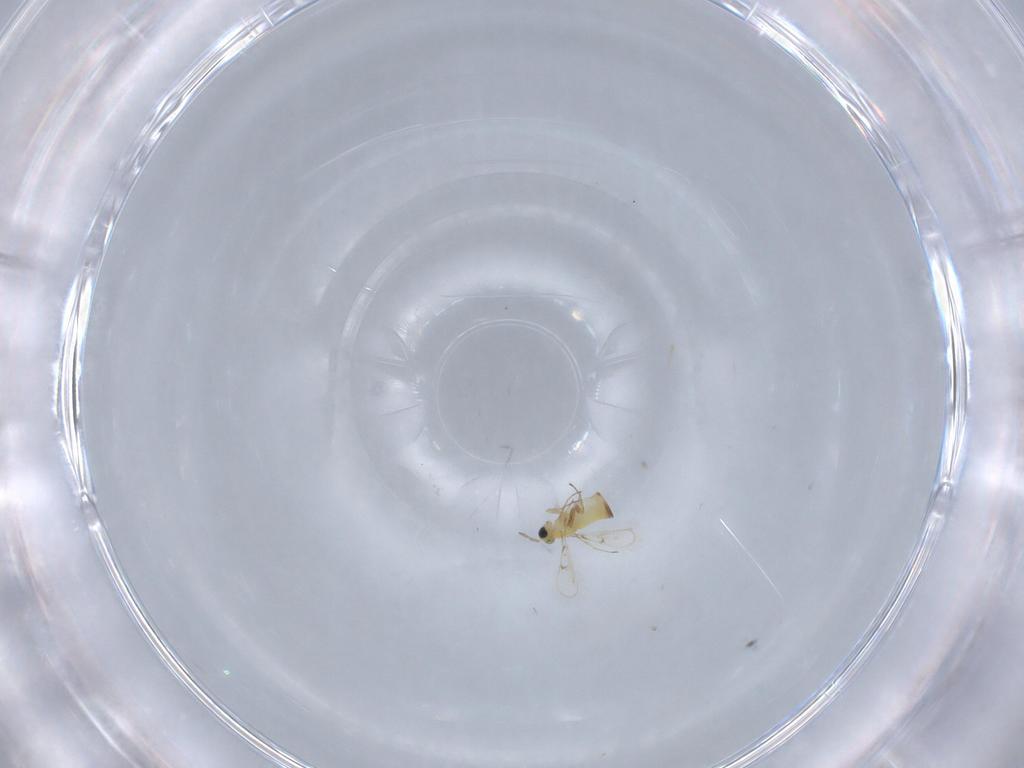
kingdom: Animalia
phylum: Arthropoda
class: Insecta
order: Hymenoptera
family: Trichogrammatidae
